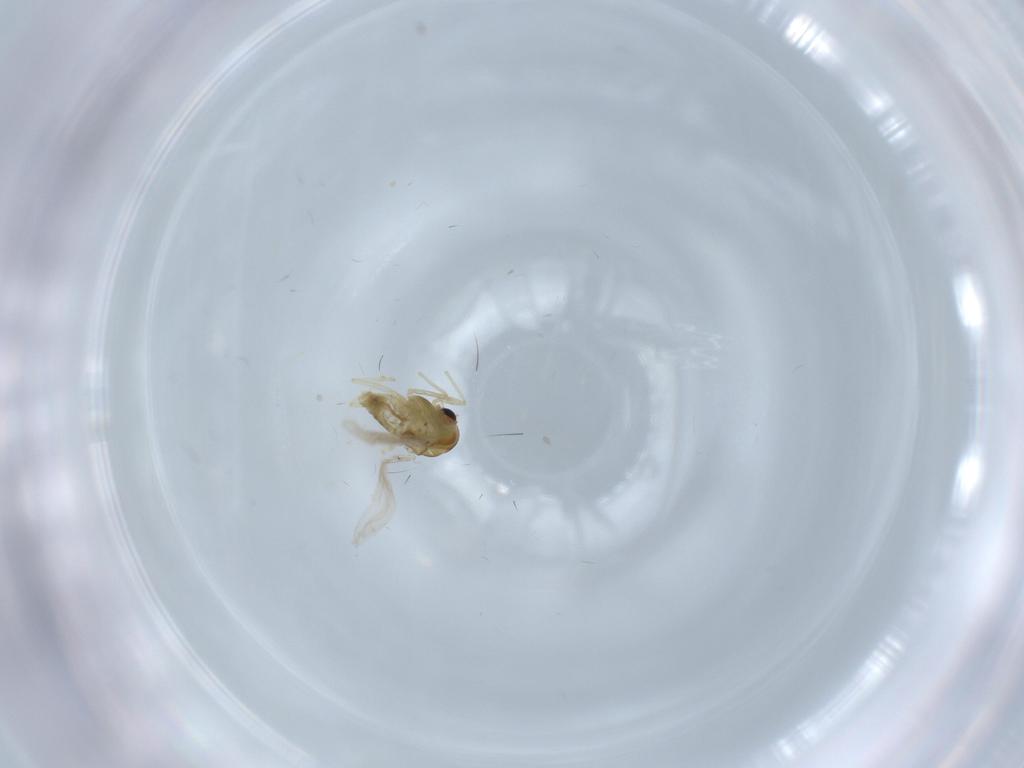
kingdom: Animalia
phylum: Arthropoda
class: Insecta
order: Diptera
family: Chironomidae
